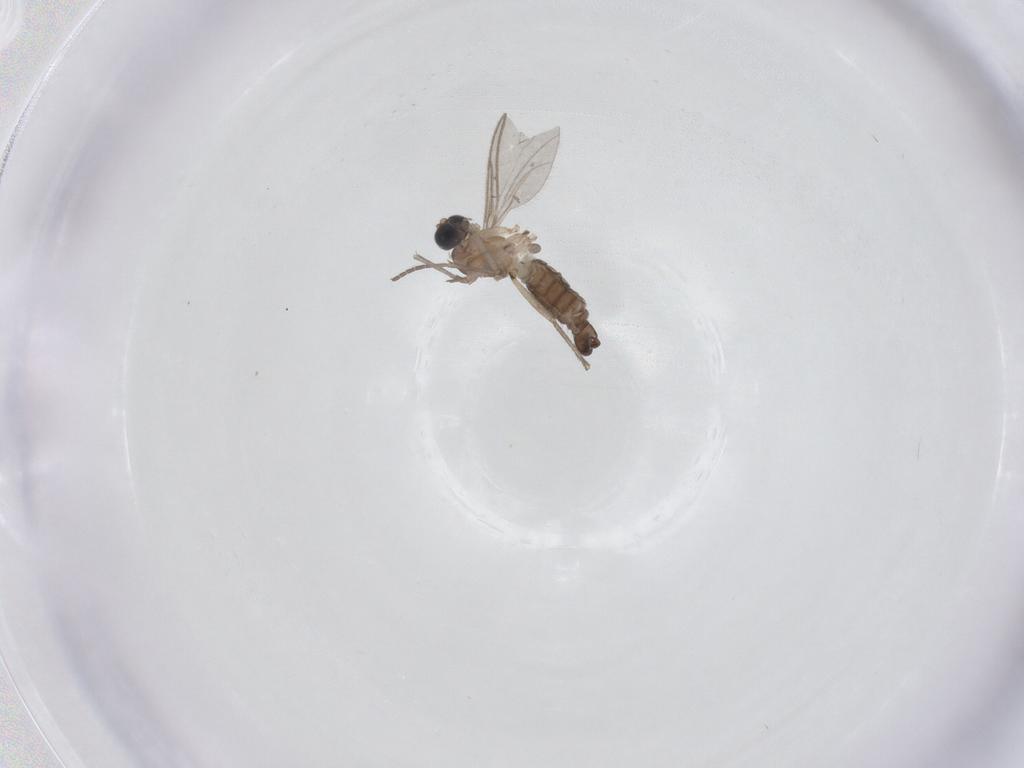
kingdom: Animalia
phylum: Arthropoda
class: Insecta
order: Diptera
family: Sciaridae
